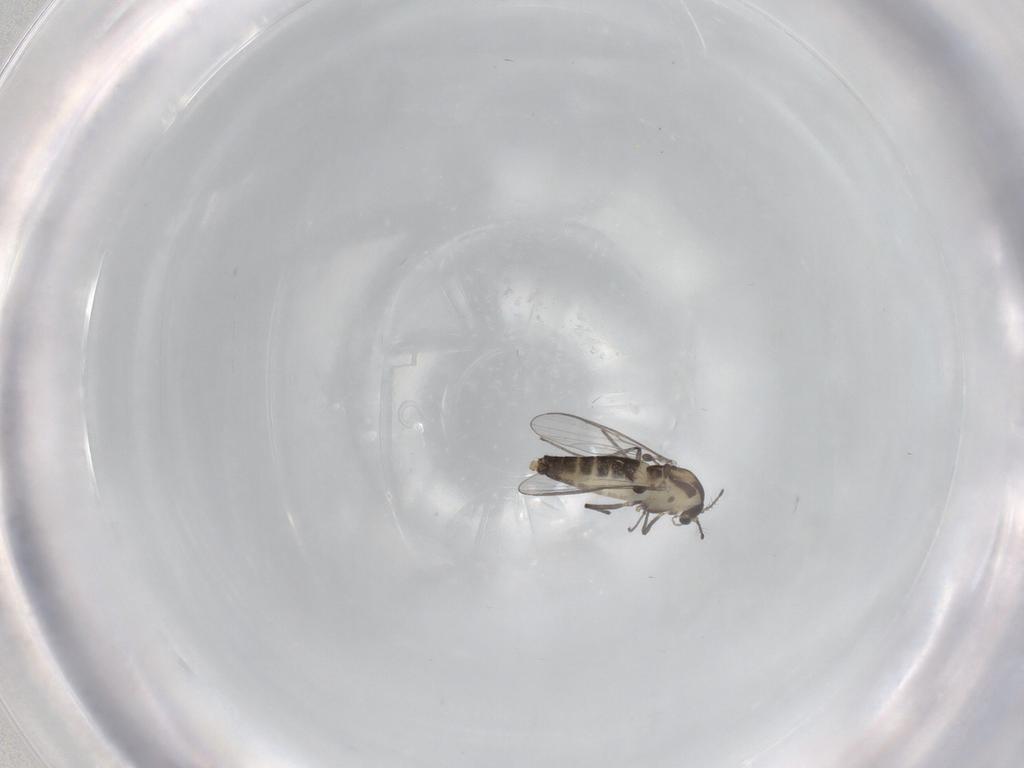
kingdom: Animalia
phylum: Arthropoda
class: Insecta
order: Diptera
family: Chironomidae
